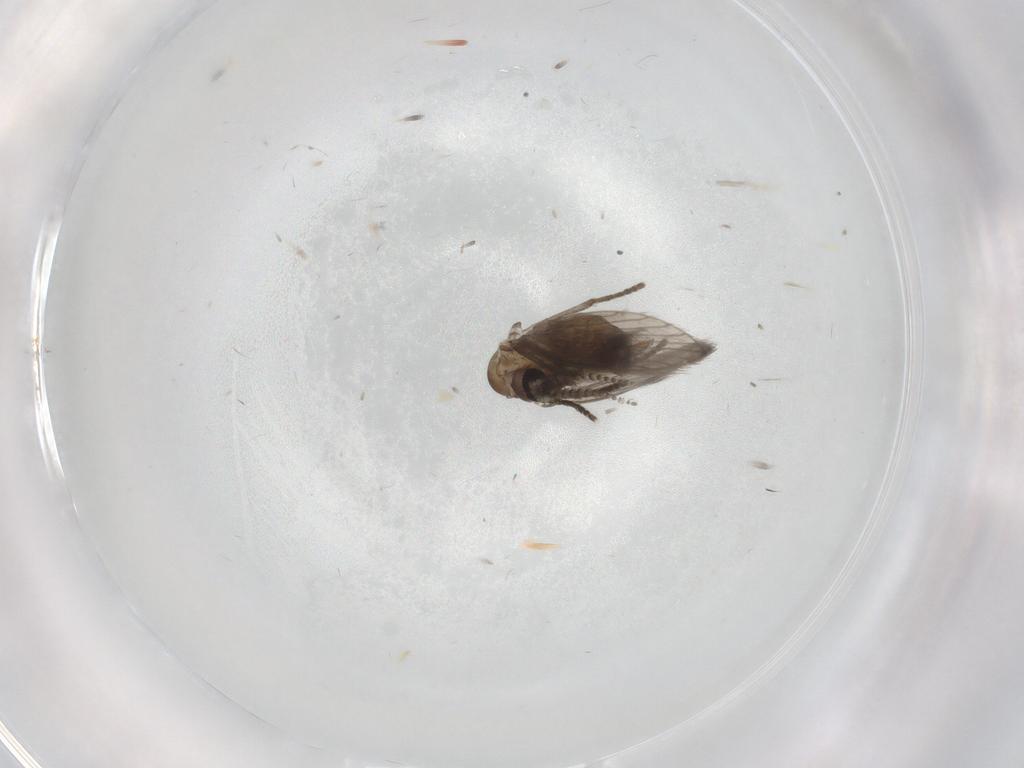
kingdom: Animalia
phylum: Arthropoda
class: Insecta
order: Diptera
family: Psychodidae
